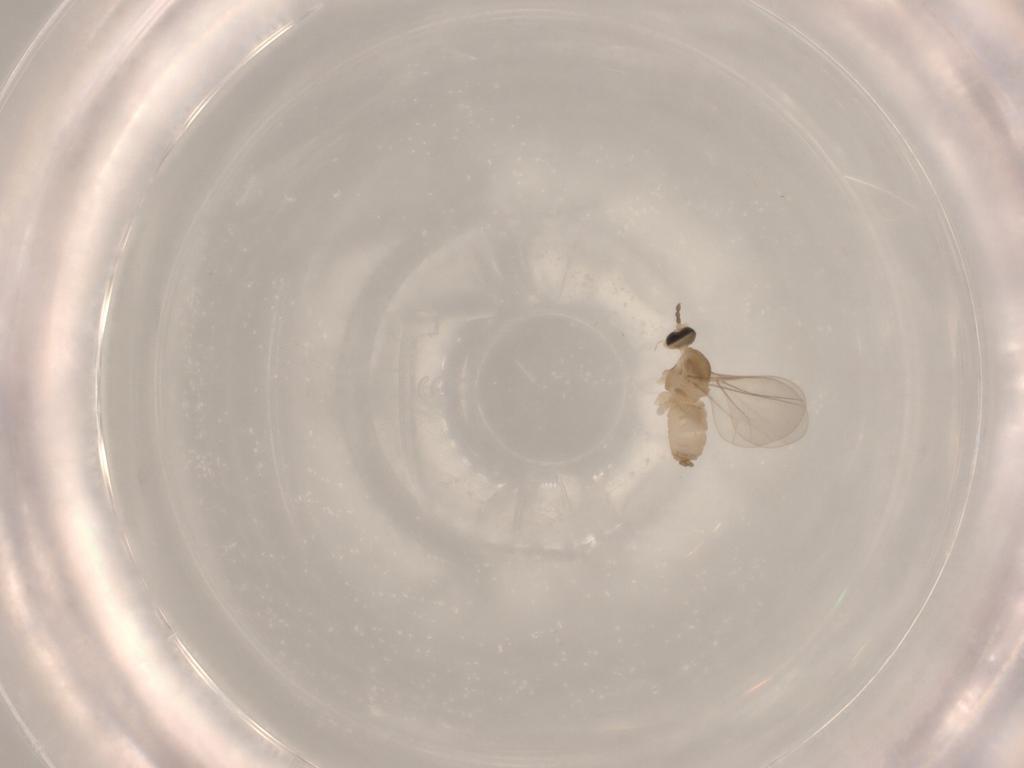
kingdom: Animalia
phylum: Arthropoda
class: Insecta
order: Diptera
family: Cecidomyiidae
